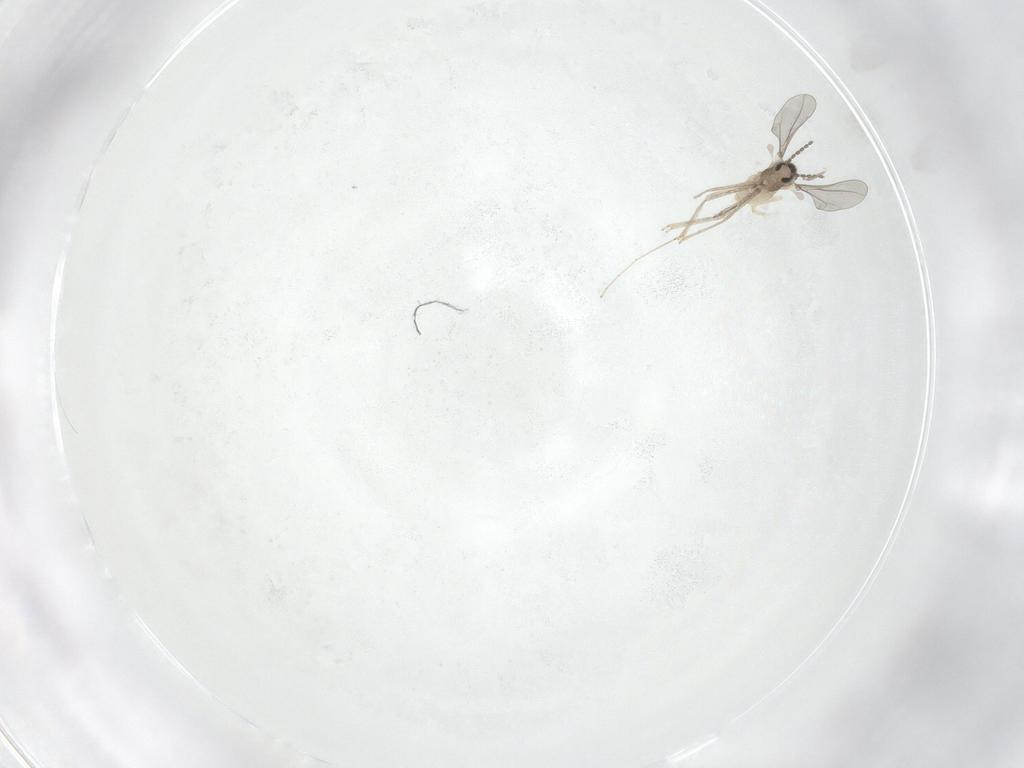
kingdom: Animalia
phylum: Arthropoda
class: Insecta
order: Diptera
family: Chironomidae
